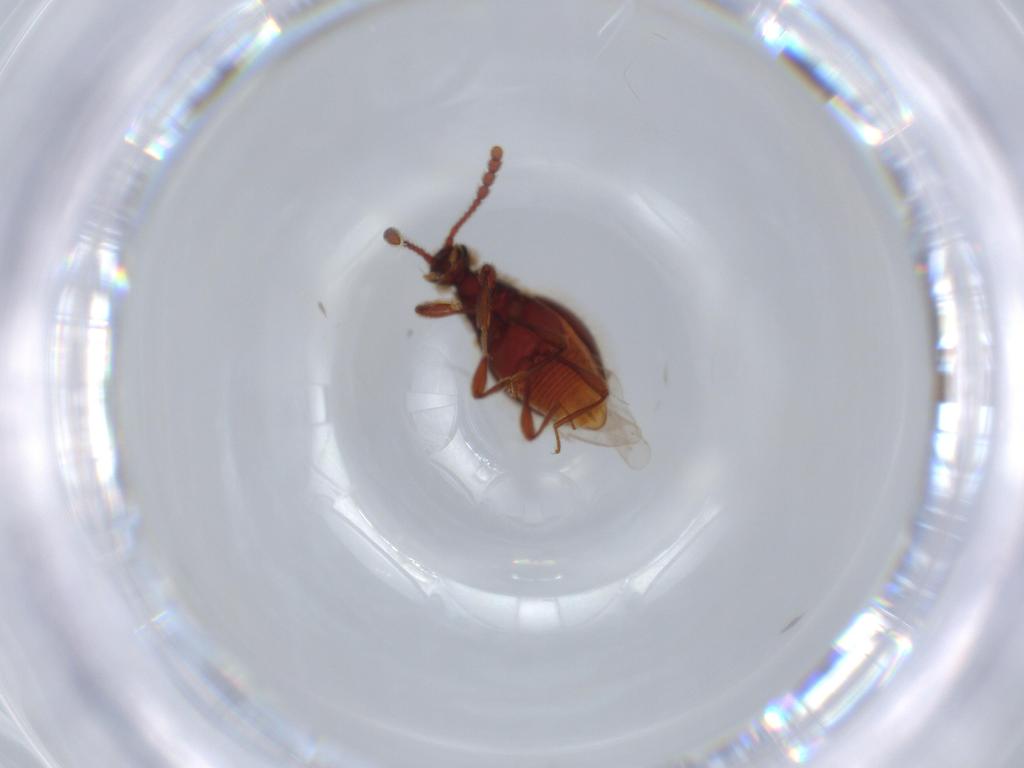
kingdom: Animalia
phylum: Arthropoda
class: Insecta
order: Coleoptera
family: Staphylinidae
